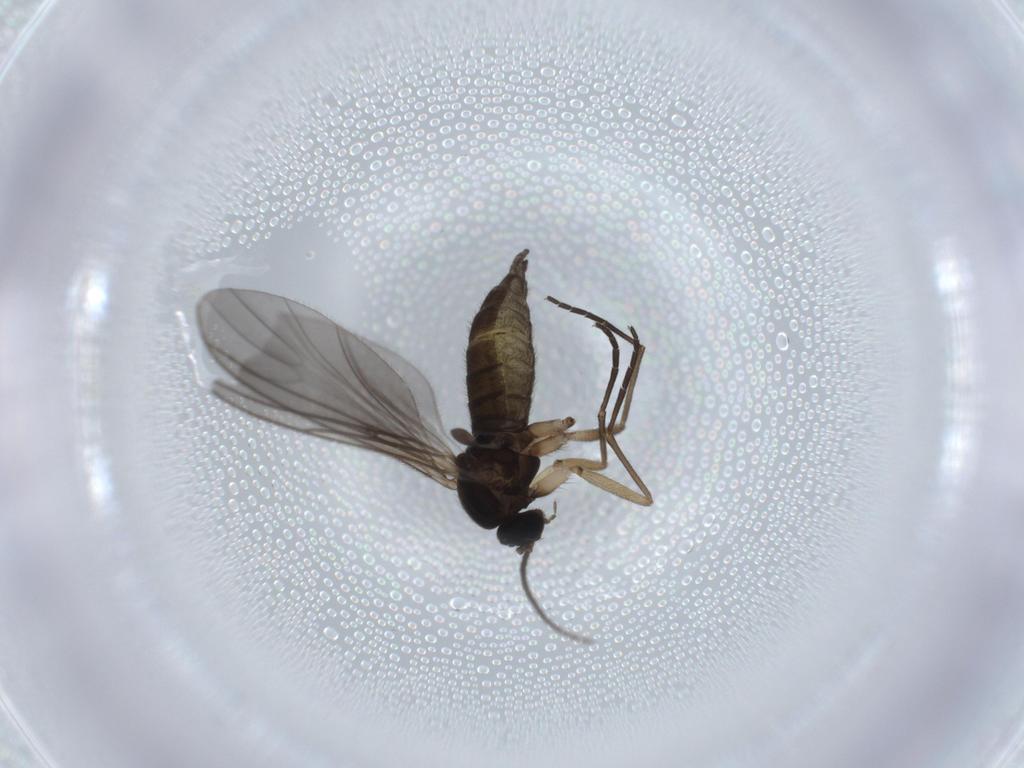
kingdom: Animalia
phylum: Arthropoda
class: Insecta
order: Diptera
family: Sciaridae
